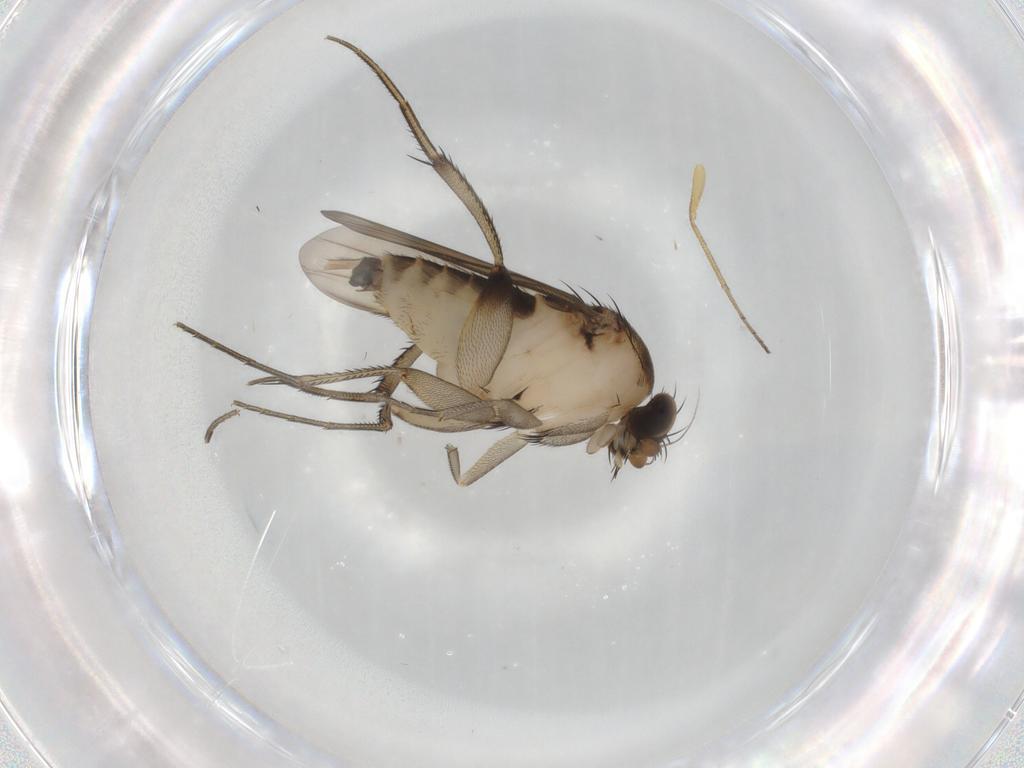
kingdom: Animalia
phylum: Arthropoda
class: Insecta
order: Diptera
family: Phoridae
